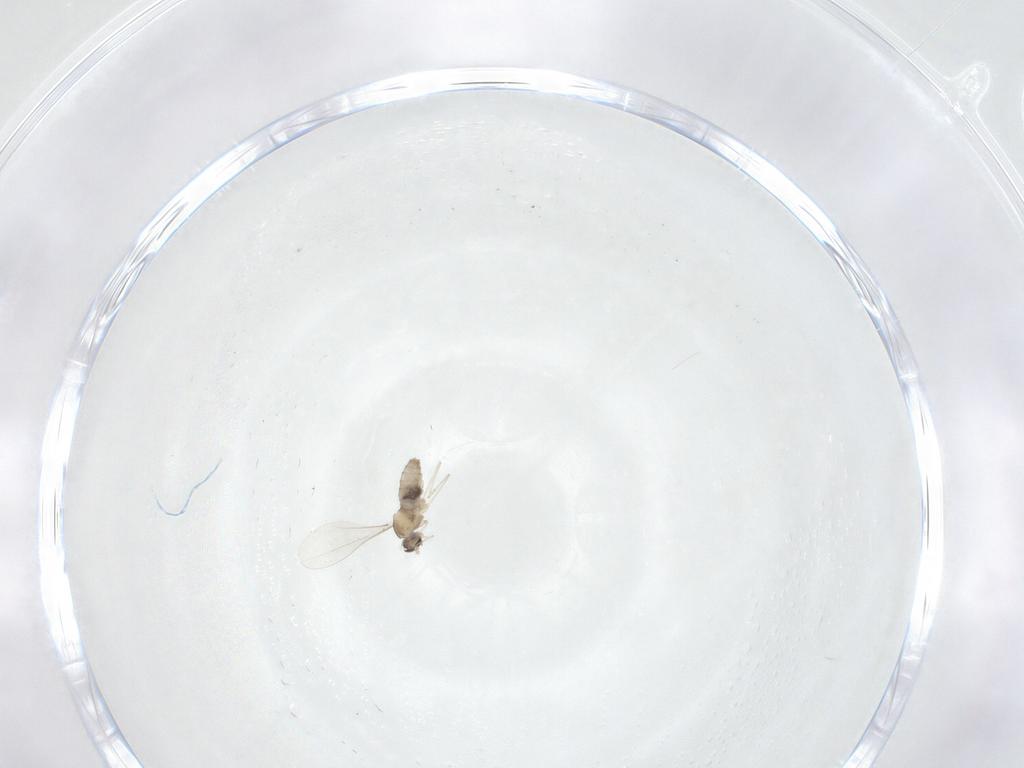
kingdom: Animalia
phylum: Arthropoda
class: Insecta
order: Diptera
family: Cecidomyiidae
